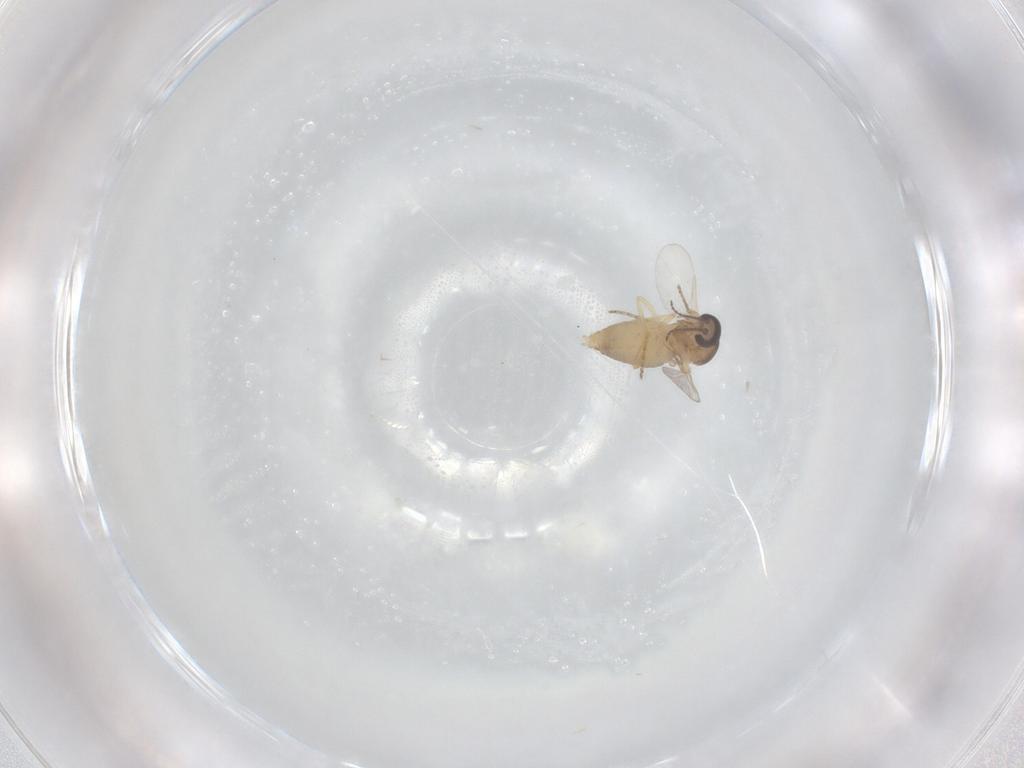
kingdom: Animalia
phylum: Arthropoda
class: Insecta
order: Diptera
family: Ceratopogonidae
